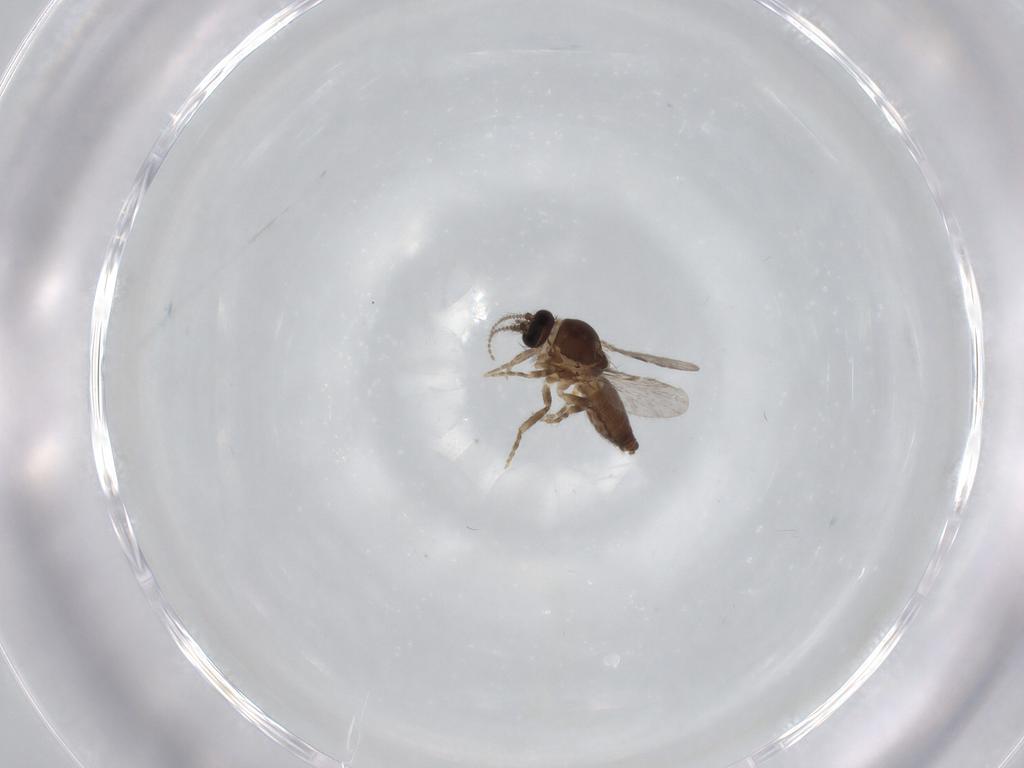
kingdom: Animalia
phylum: Arthropoda
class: Insecta
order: Diptera
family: Ceratopogonidae
